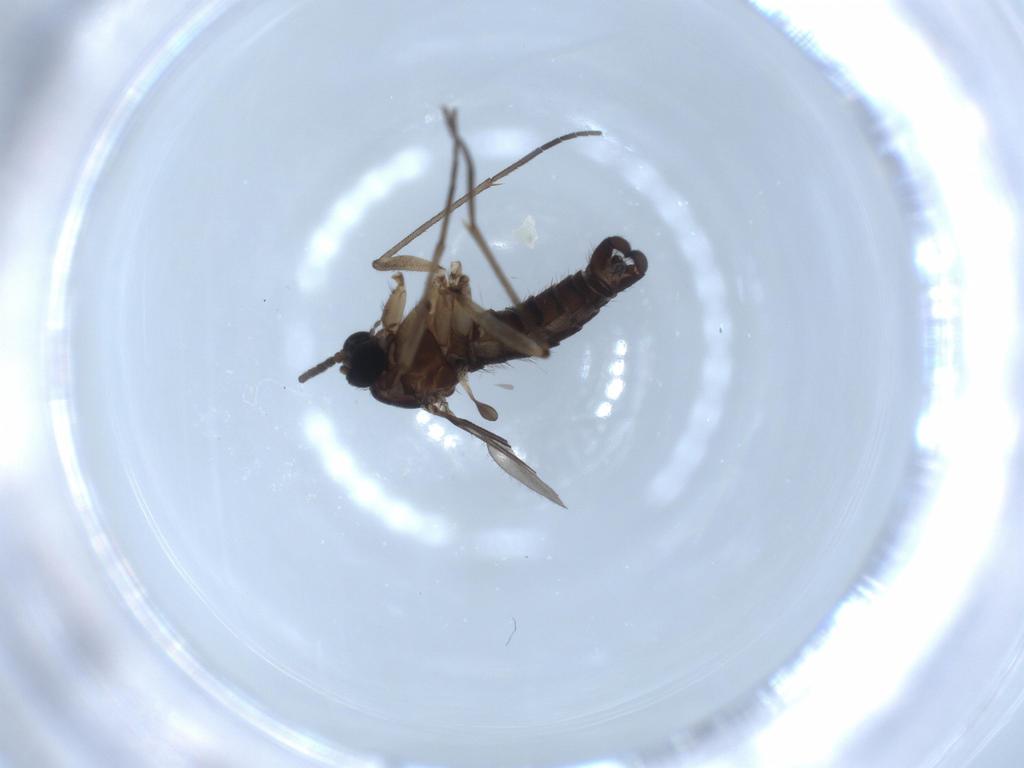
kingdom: Animalia
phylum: Arthropoda
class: Insecta
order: Diptera
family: Sciaridae
